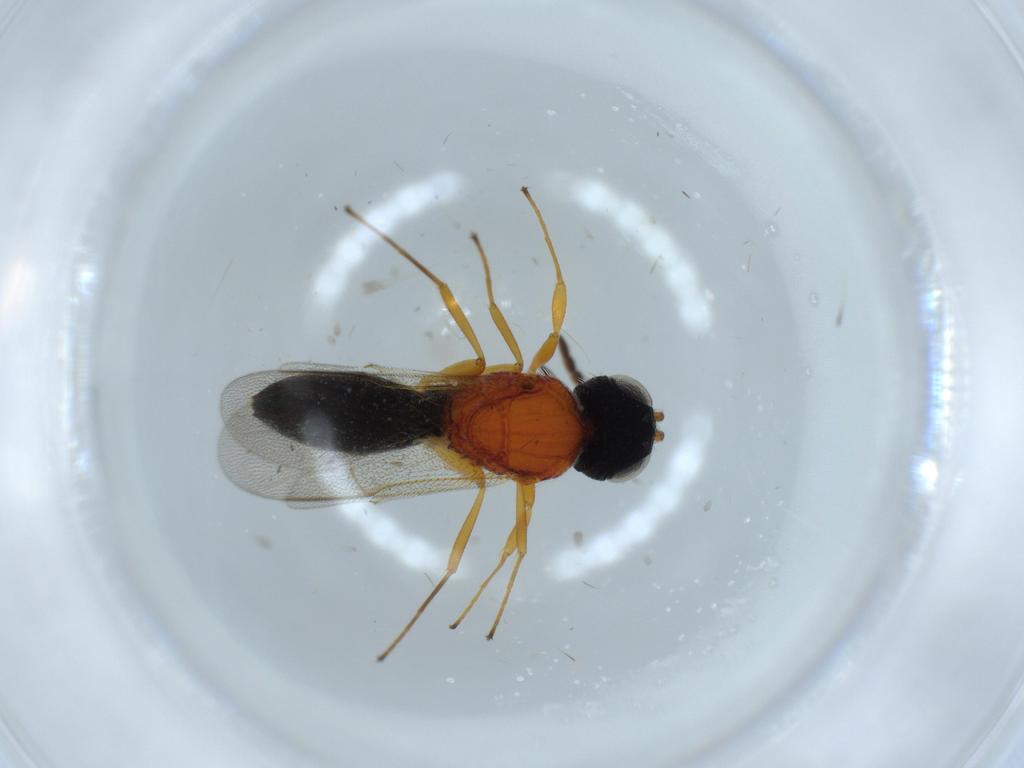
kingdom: Animalia
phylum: Arthropoda
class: Insecta
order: Hymenoptera
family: Scelionidae
